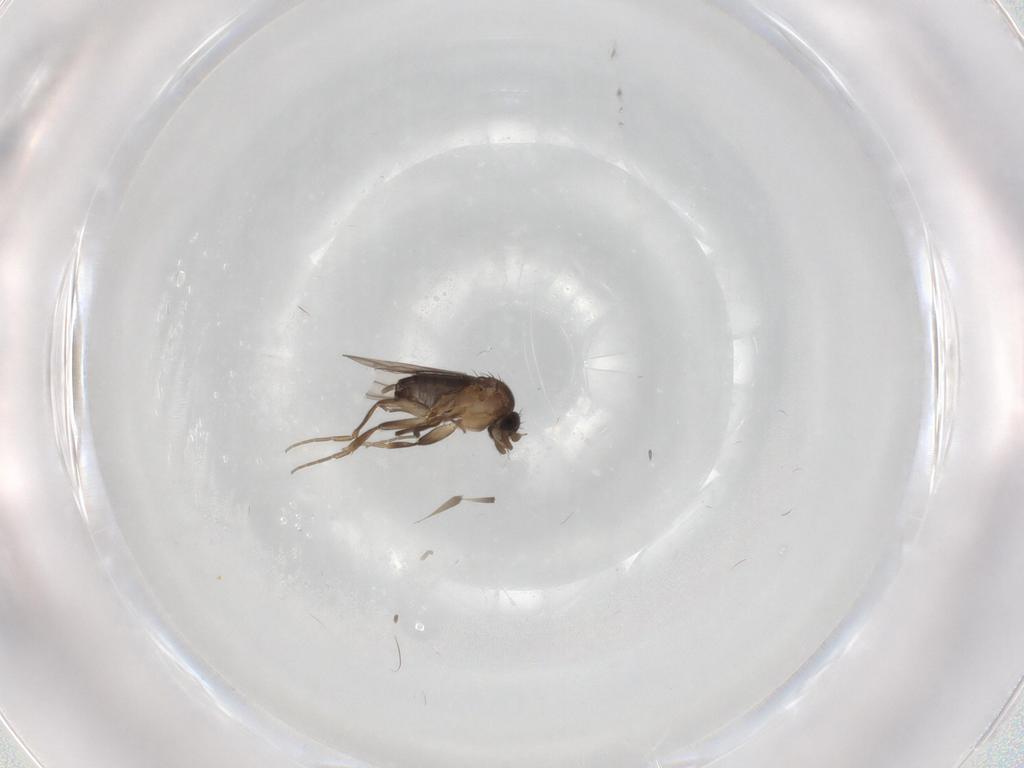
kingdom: Animalia
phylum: Arthropoda
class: Insecta
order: Diptera
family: Phoridae
